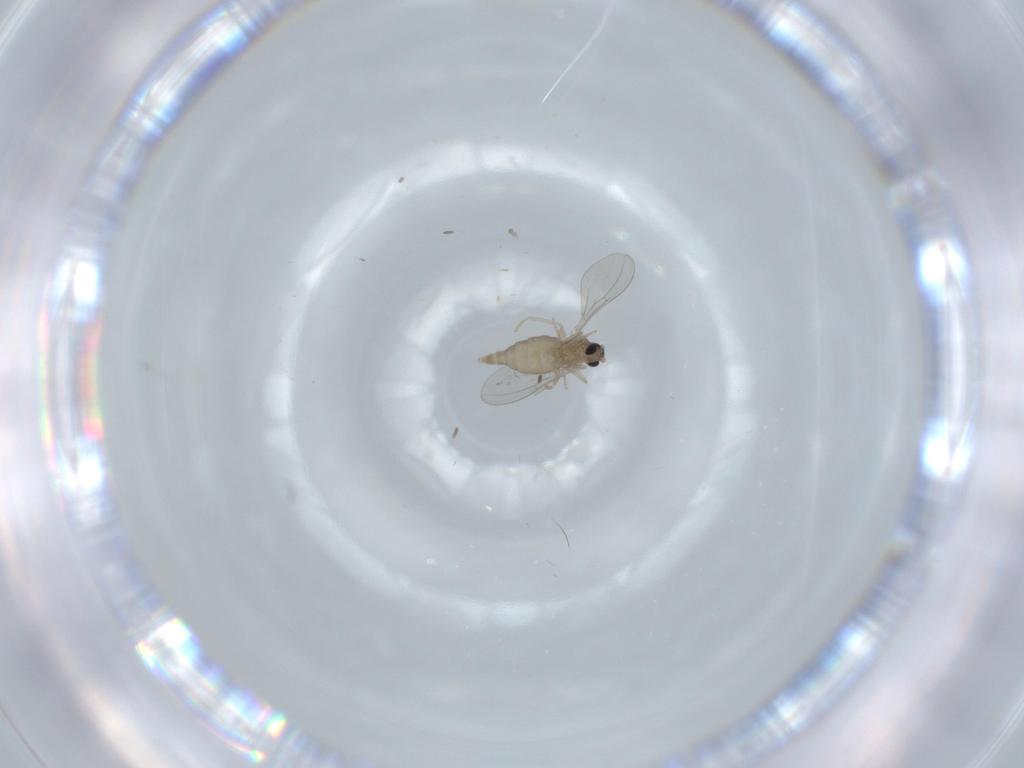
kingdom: Animalia
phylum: Arthropoda
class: Insecta
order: Diptera
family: Cecidomyiidae
